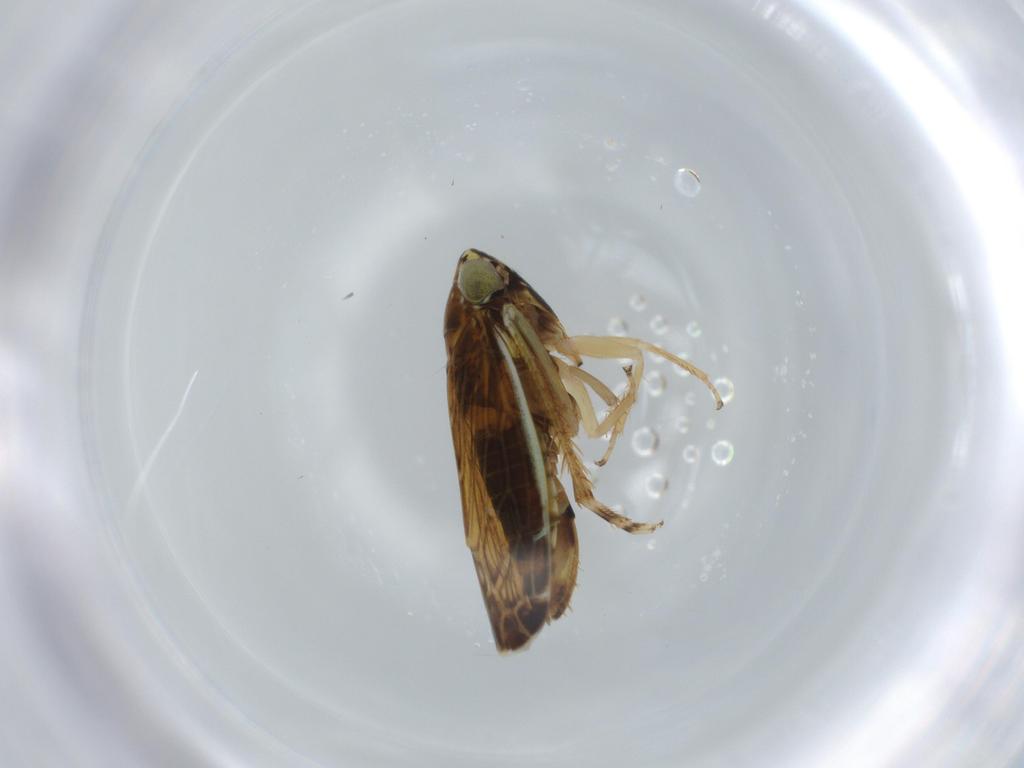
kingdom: Animalia
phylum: Arthropoda
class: Insecta
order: Hemiptera
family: Cicadellidae
